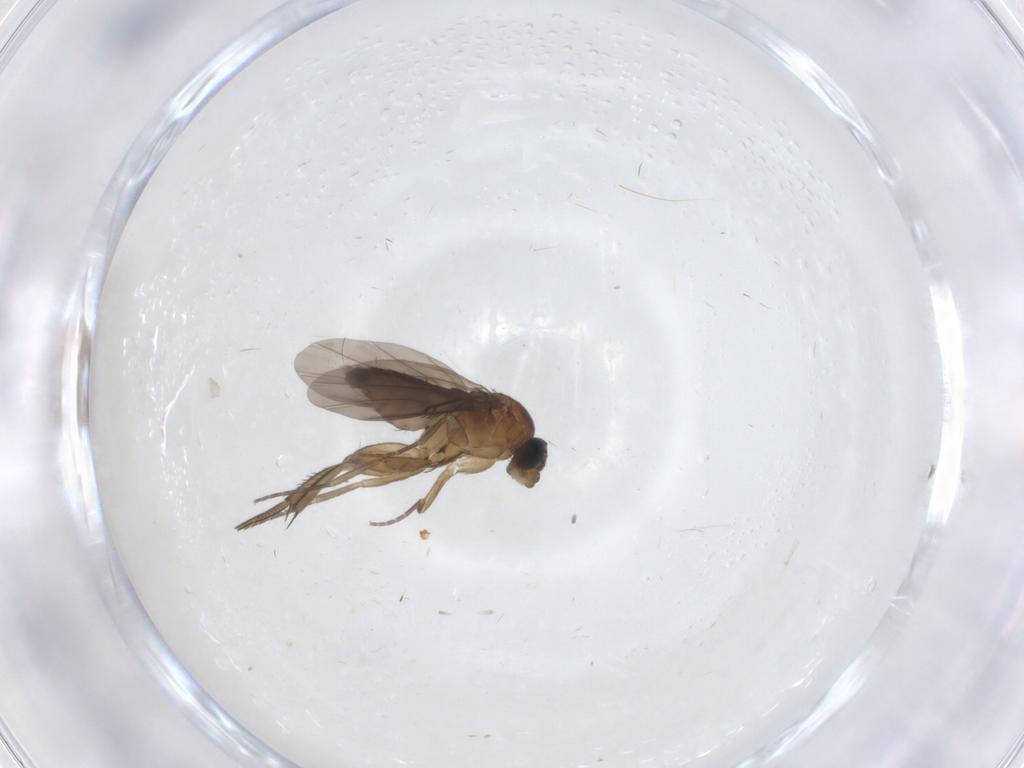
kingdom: Animalia
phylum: Arthropoda
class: Insecta
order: Diptera
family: Phoridae
